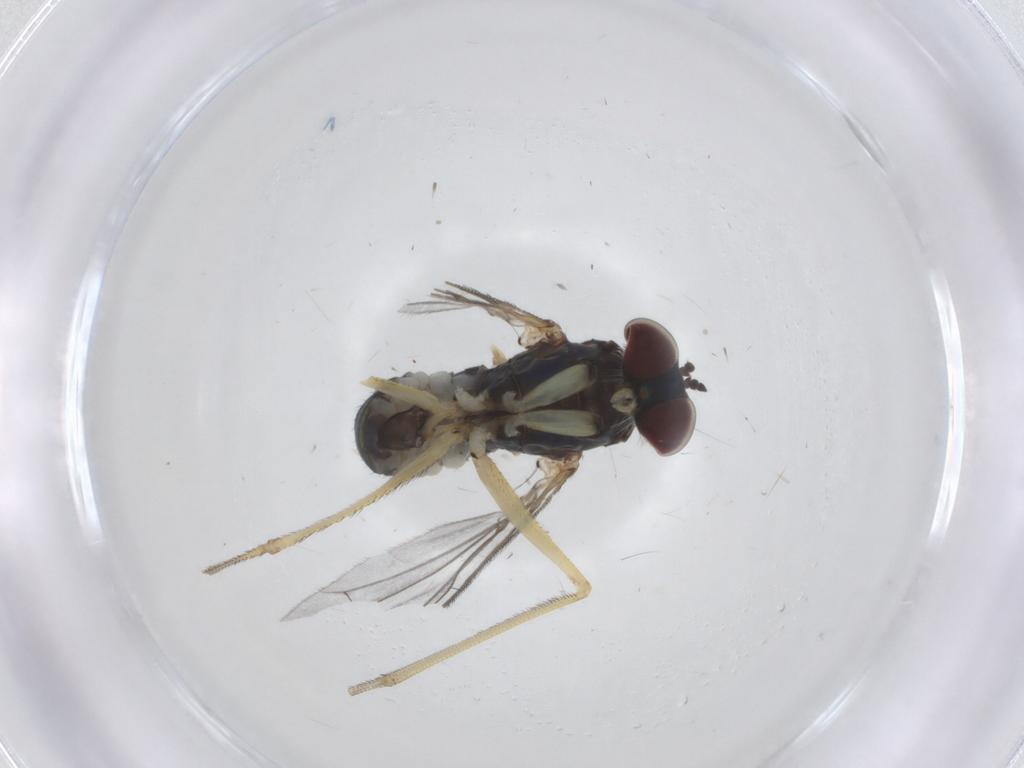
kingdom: Animalia
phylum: Arthropoda
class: Insecta
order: Diptera
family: Dolichopodidae
